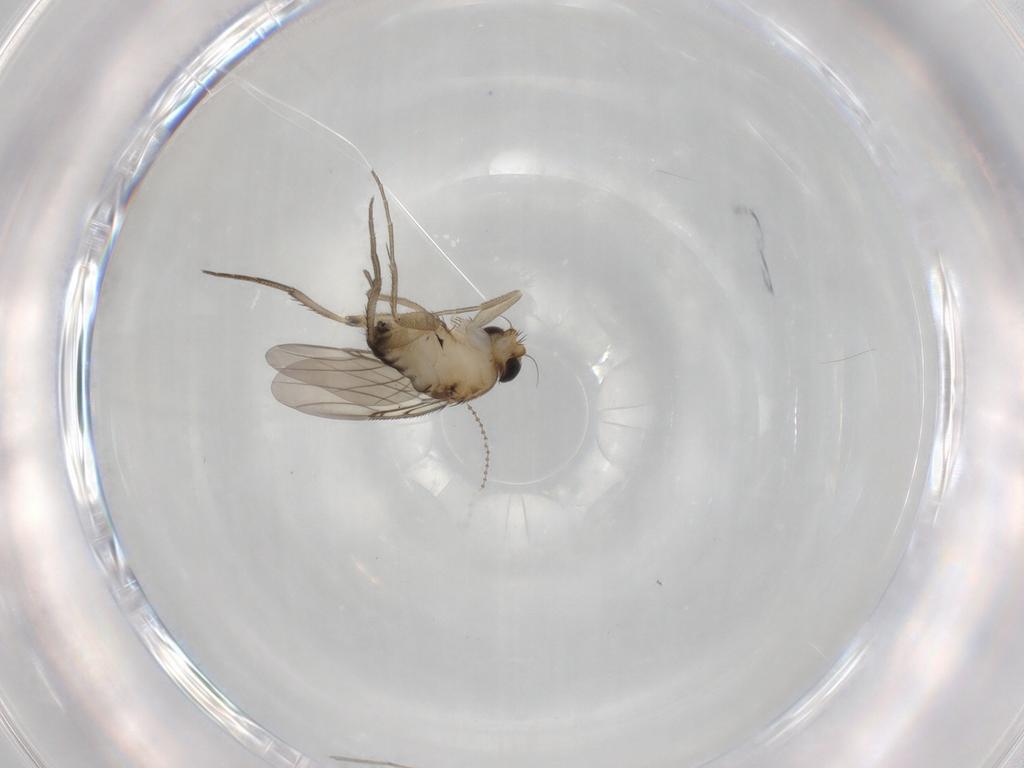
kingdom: Animalia
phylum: Arthropoda
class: Insecta
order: Diptera
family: Phoridae
